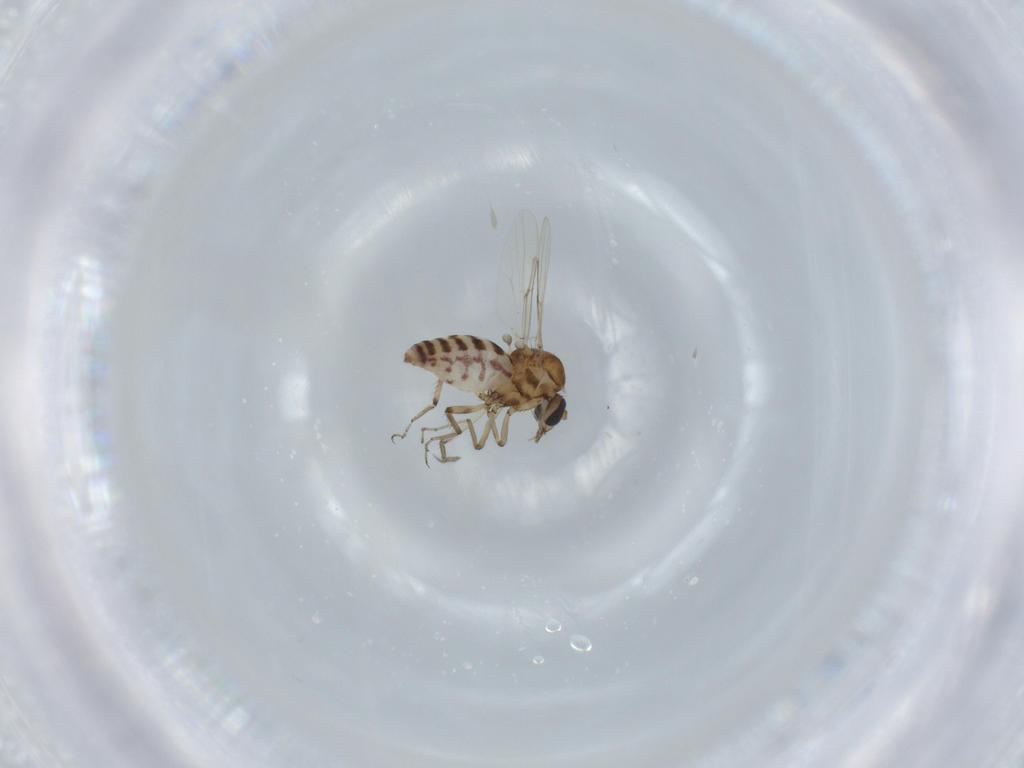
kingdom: Animalia
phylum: Arthropoda
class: Insecta
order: Diptera
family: Ceratopogonidae
